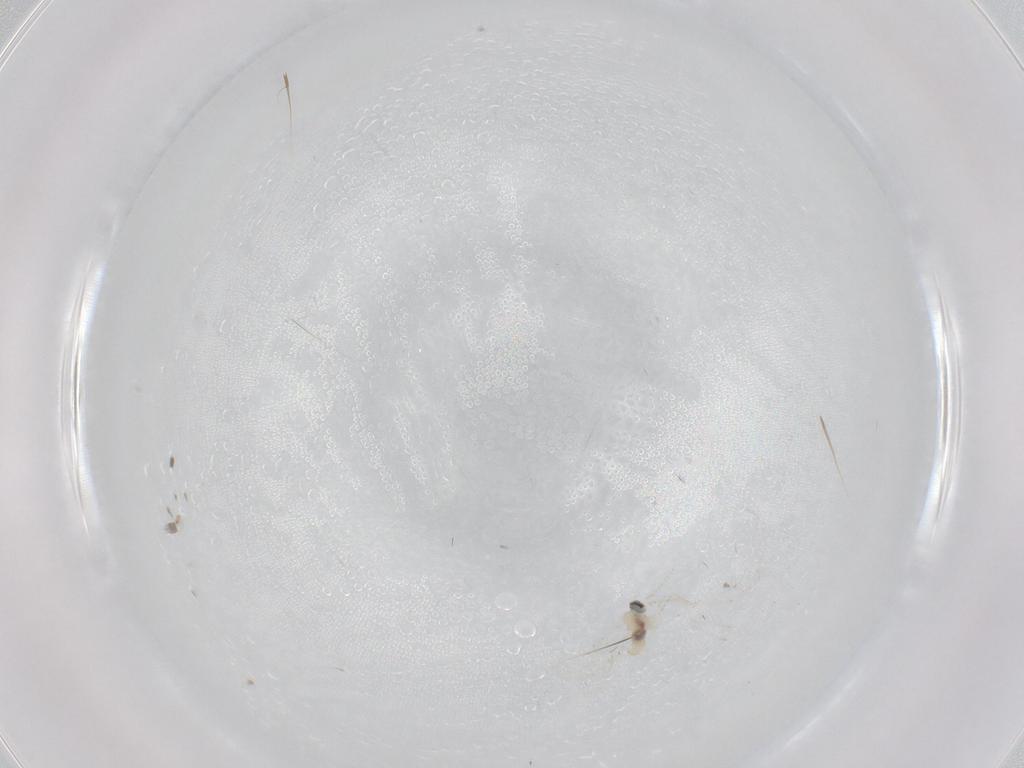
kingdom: Animalia
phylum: Arthropoda
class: Insecta
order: Diptera
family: Cecidomyiidae
